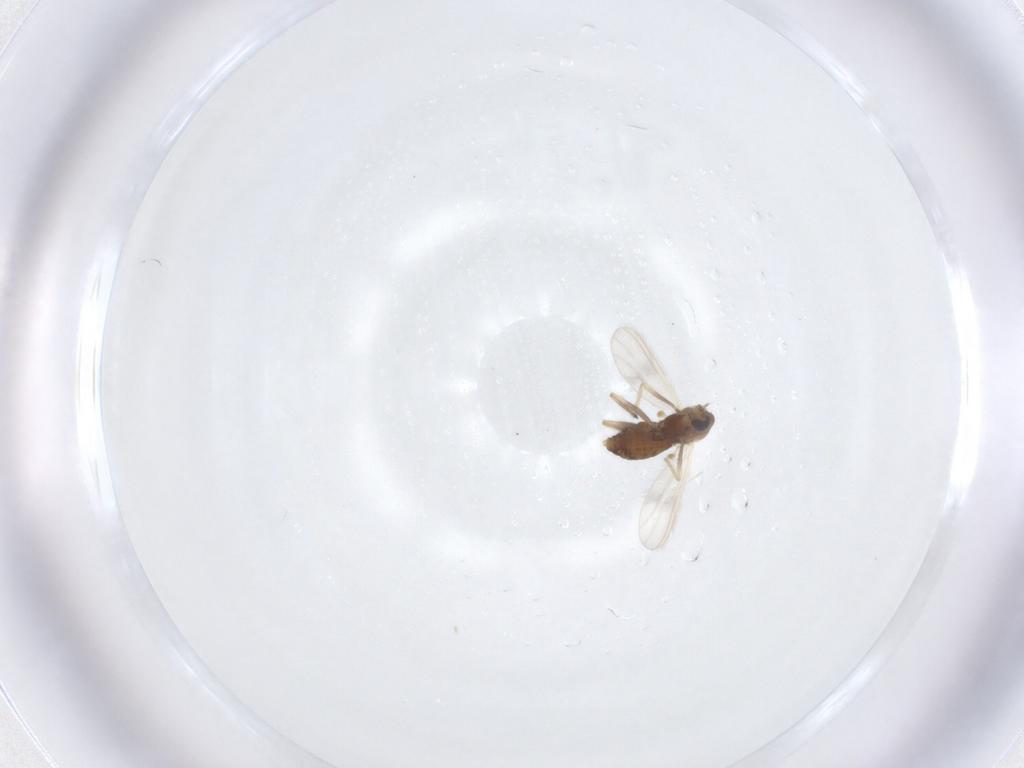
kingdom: Animalia
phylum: Arthropoda
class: Insecta
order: Diptera
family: Chironomidae
